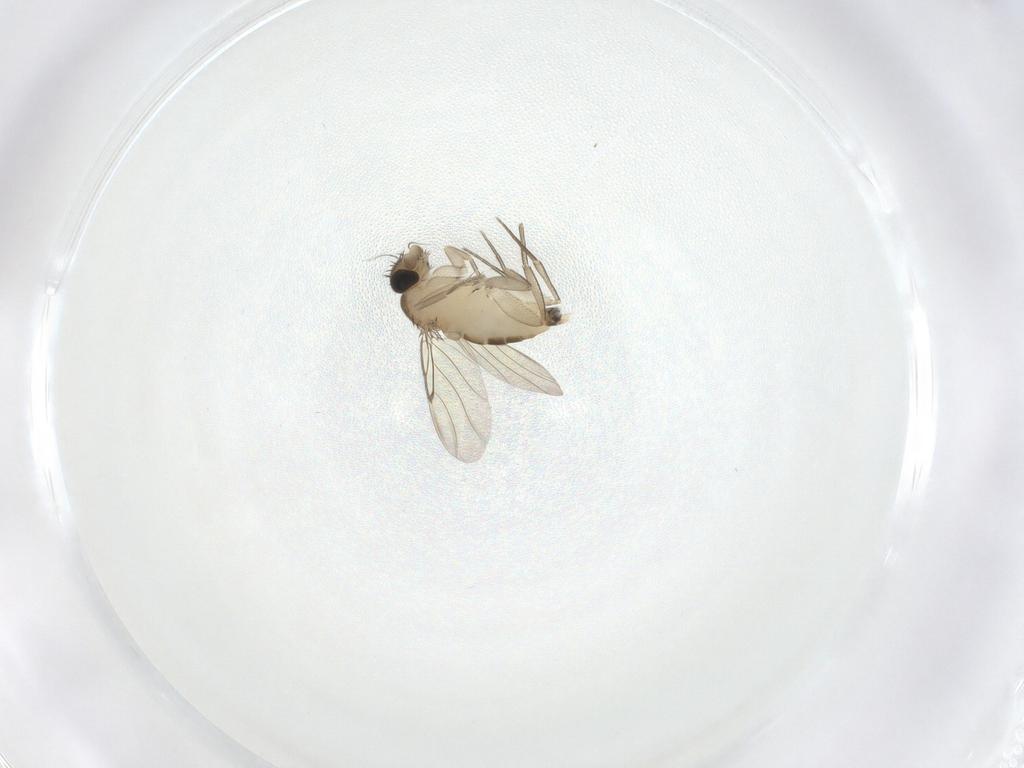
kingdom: Animalia
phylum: Arthropoda
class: Insecta
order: Diptera
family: Phoridae
